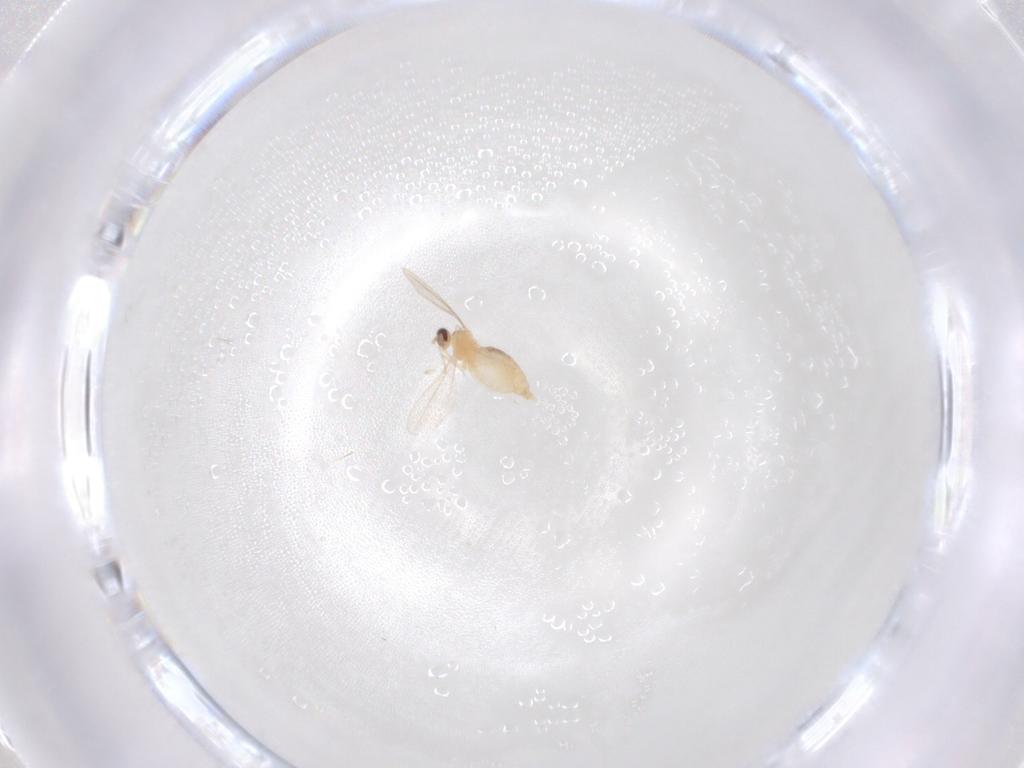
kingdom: Animalia
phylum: Arthropoda
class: Insecta
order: Diptera
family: Cecidomyiidae
